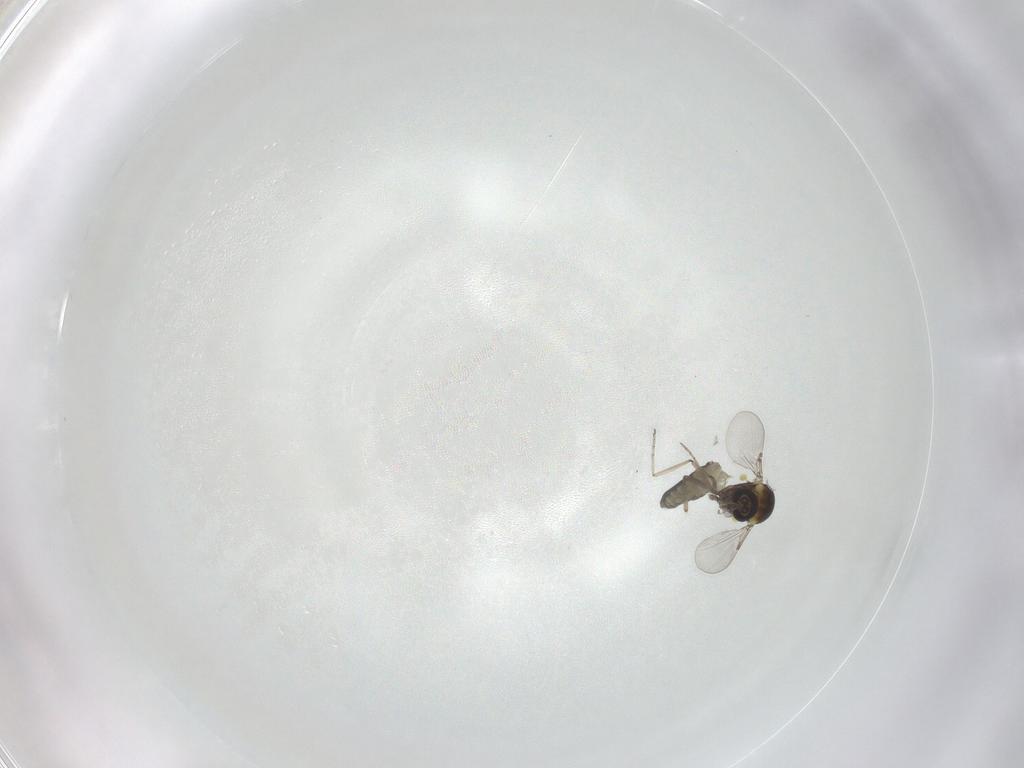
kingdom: Animalia
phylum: Arthropoda
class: Insecta
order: Diptera
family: Ceratopogonidae
